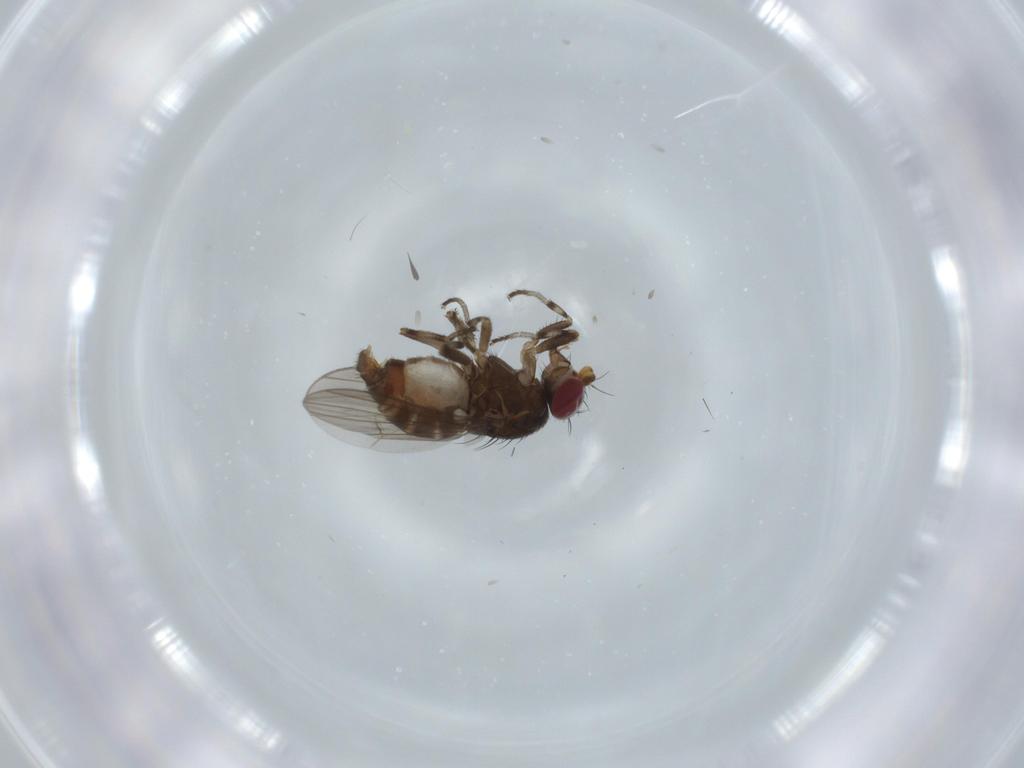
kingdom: Animalia
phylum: Arthropoda
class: Insecta
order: Diptera
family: Heleomyzidae
